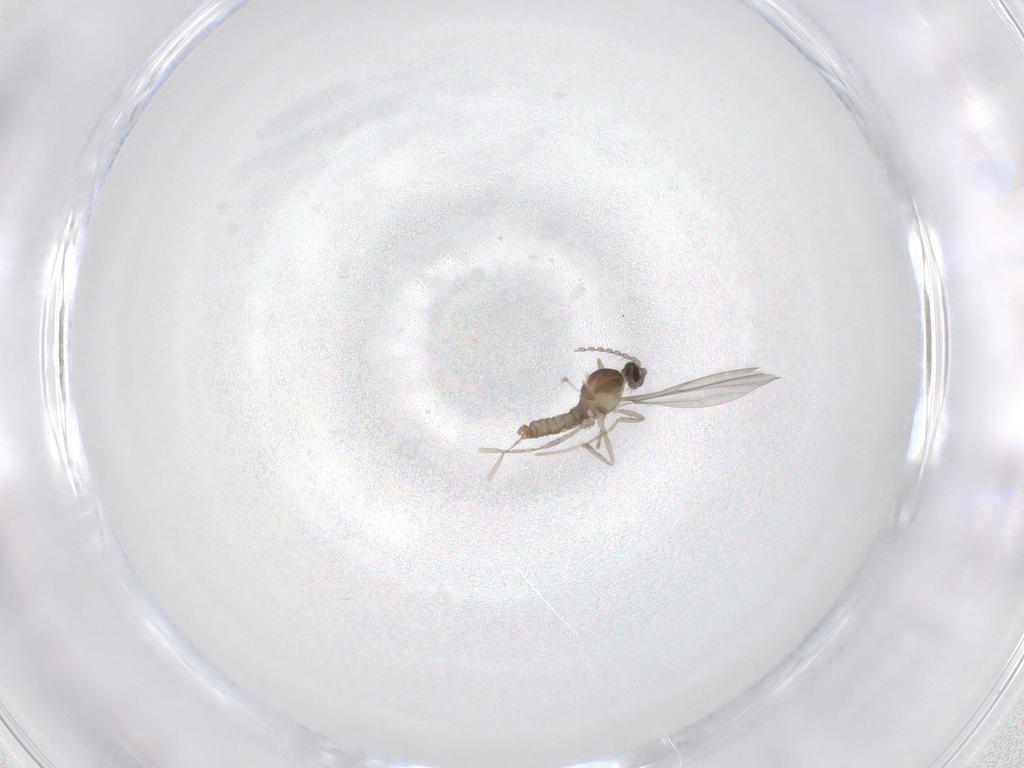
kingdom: Animalia
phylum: Arthropoda
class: Insecta
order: Diptera
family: Cecidomyiidae
